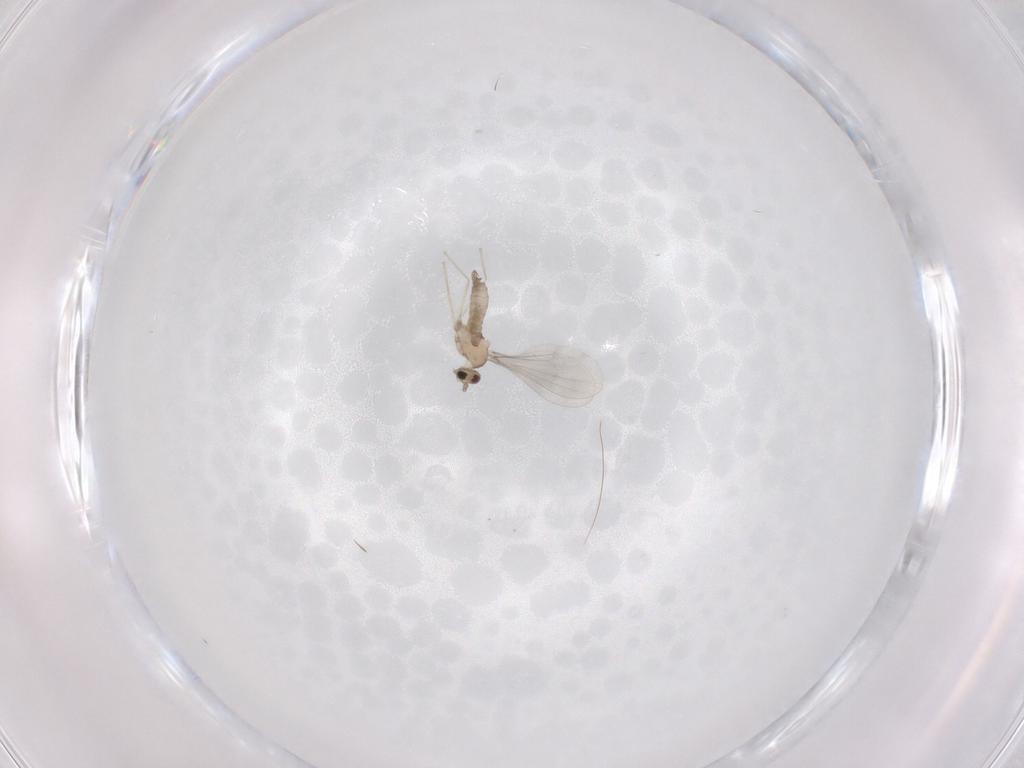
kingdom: Animalia
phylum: Arthropoda
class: Insecta
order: Diptera
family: Cecidomyiidae
